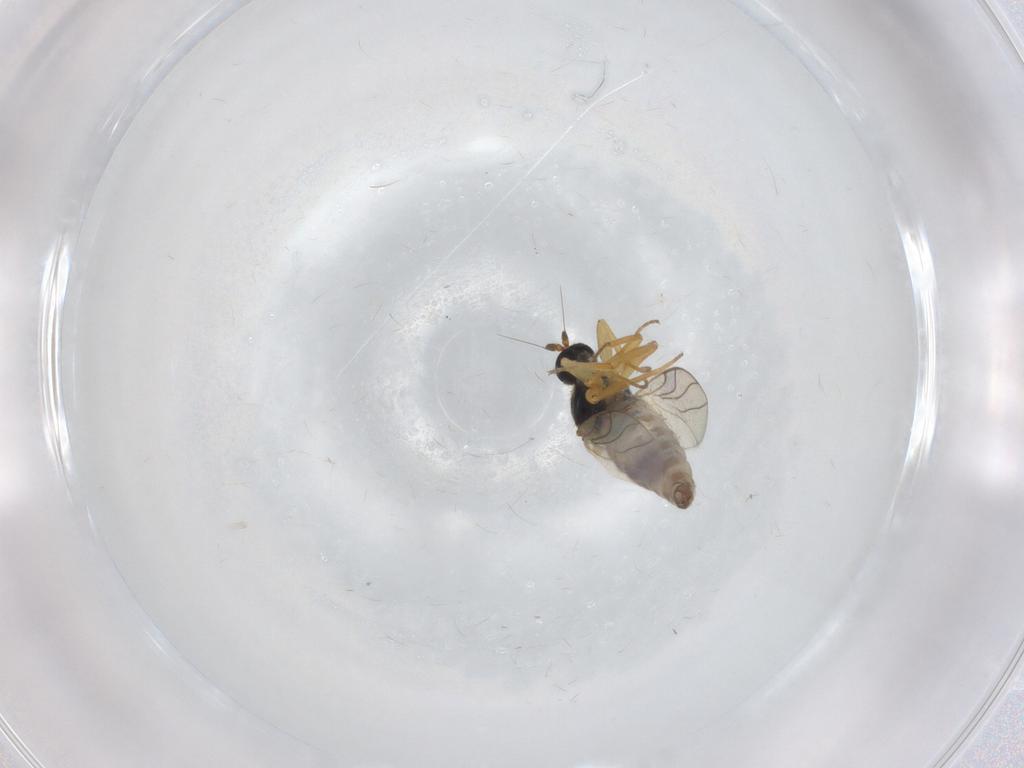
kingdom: Animalia
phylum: Arthropoda
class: Insecta
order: Diptera
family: Hybotidae
